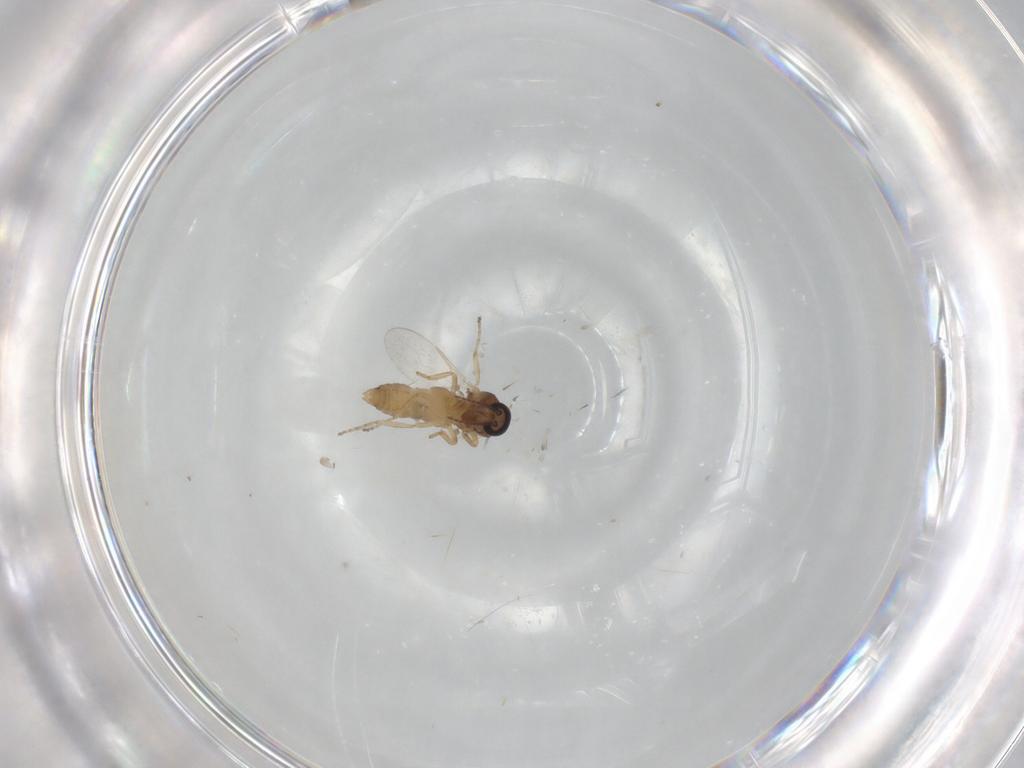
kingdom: Animalia
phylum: Arthropoda
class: Insecta
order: Diptera
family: Ceratopogonidae
